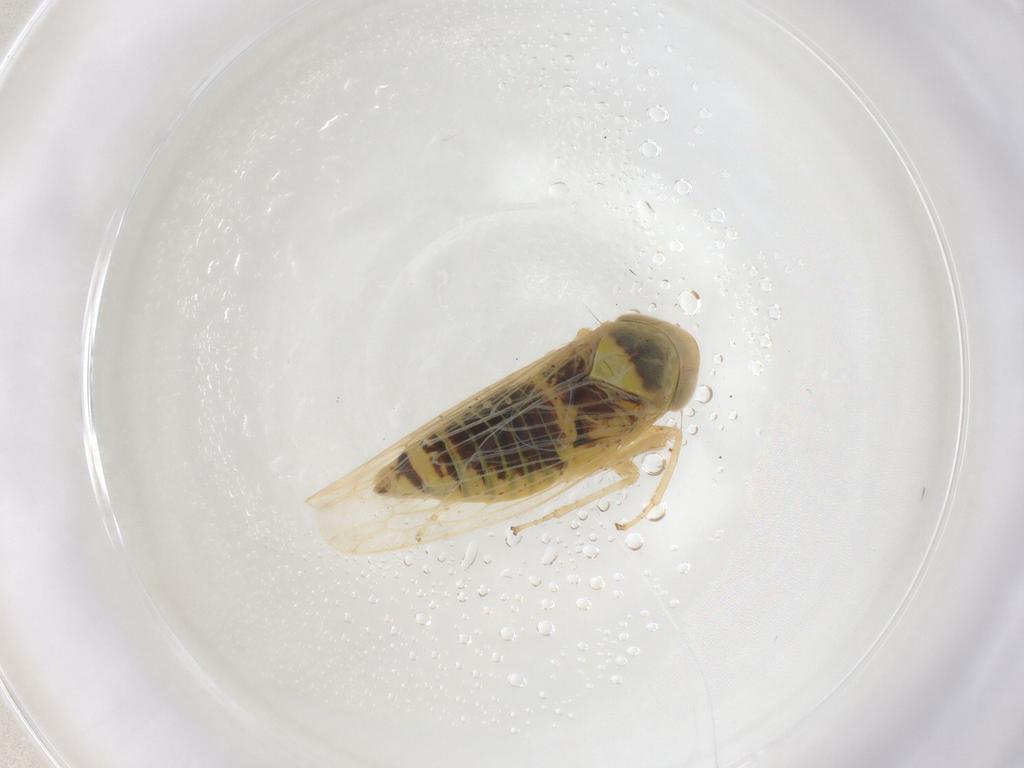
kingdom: Animalia
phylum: Arthropoda
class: Insecta
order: Hemiptera
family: Cicadellidae
